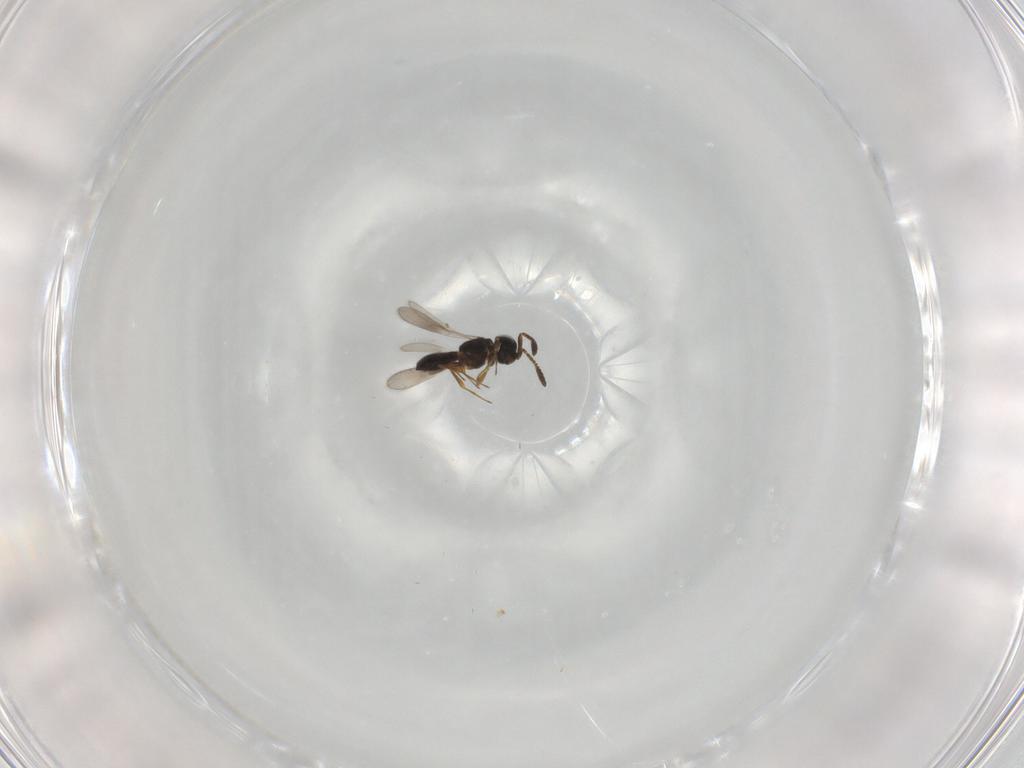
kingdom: Animalia
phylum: Arthropoda
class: Insecta
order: Hymenoptera
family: Scelionidae
